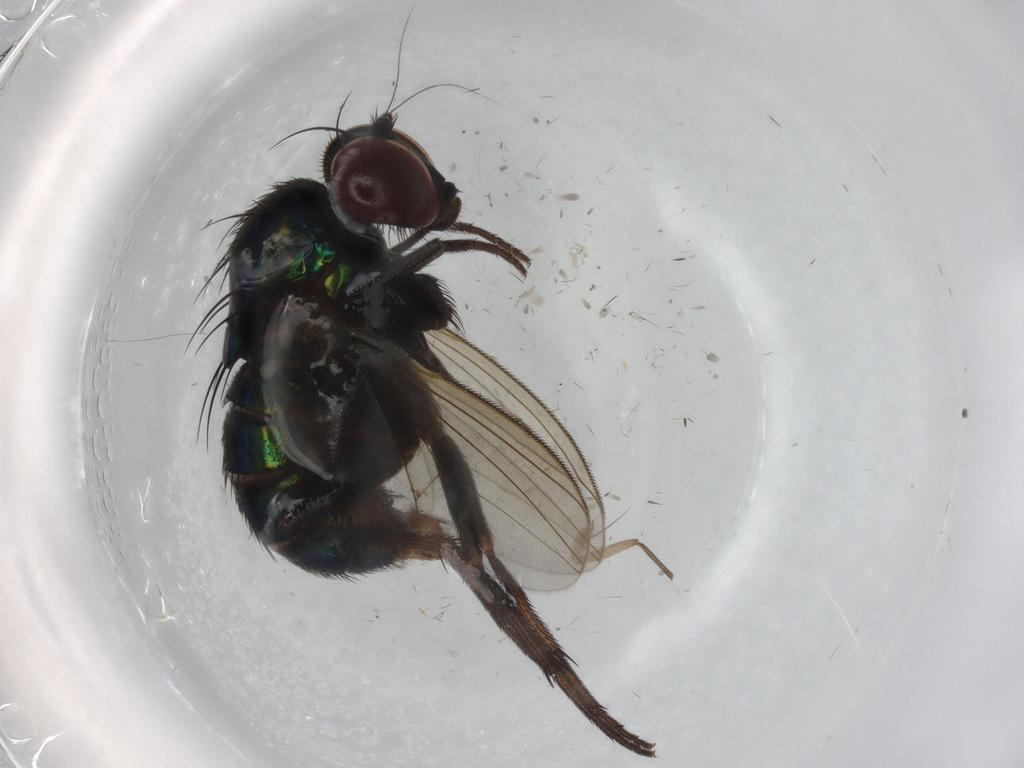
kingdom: Animalia
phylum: Arthropoda
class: Insecta
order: Diptera
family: Dolichopodidae
